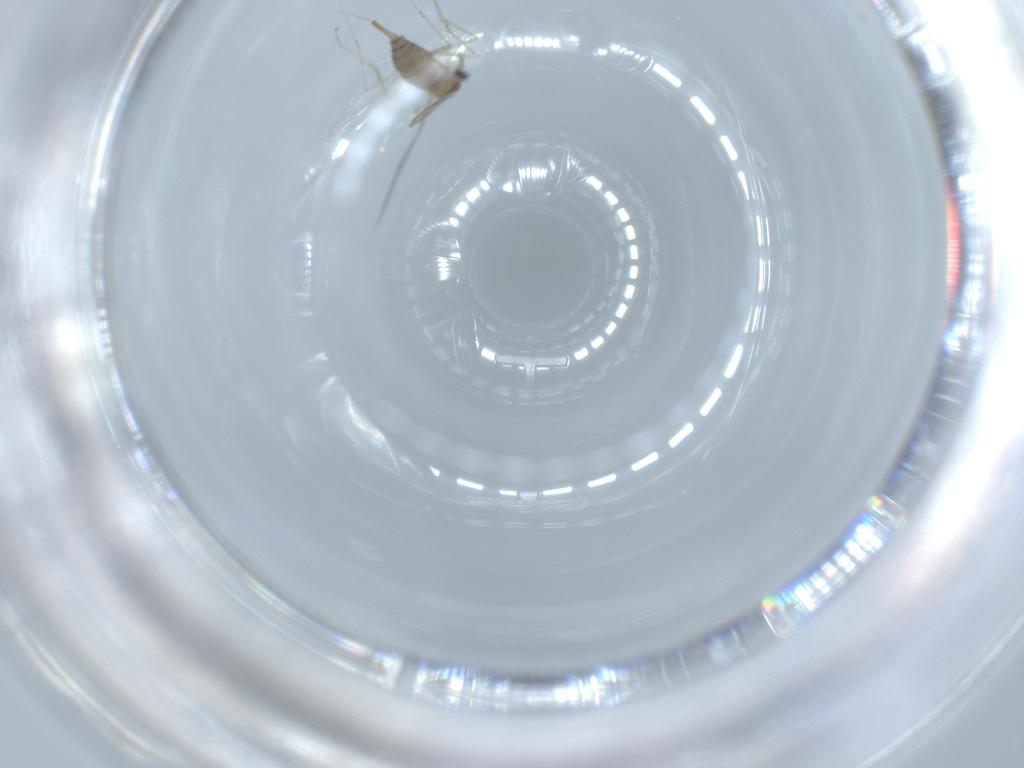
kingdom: Animalia
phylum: Arthropoda
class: Insecta
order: Diptera
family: Cecidomyiidae
